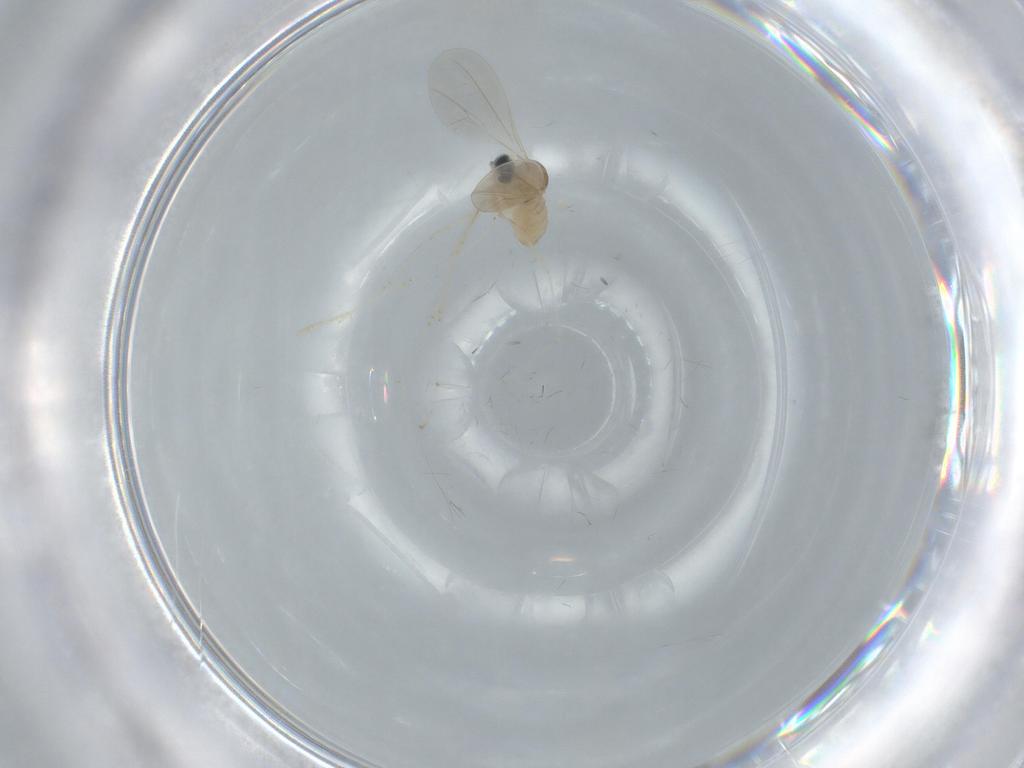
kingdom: Animalia
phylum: Arthropoda
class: Insecta
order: Diptera
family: Cecidomyiidae
